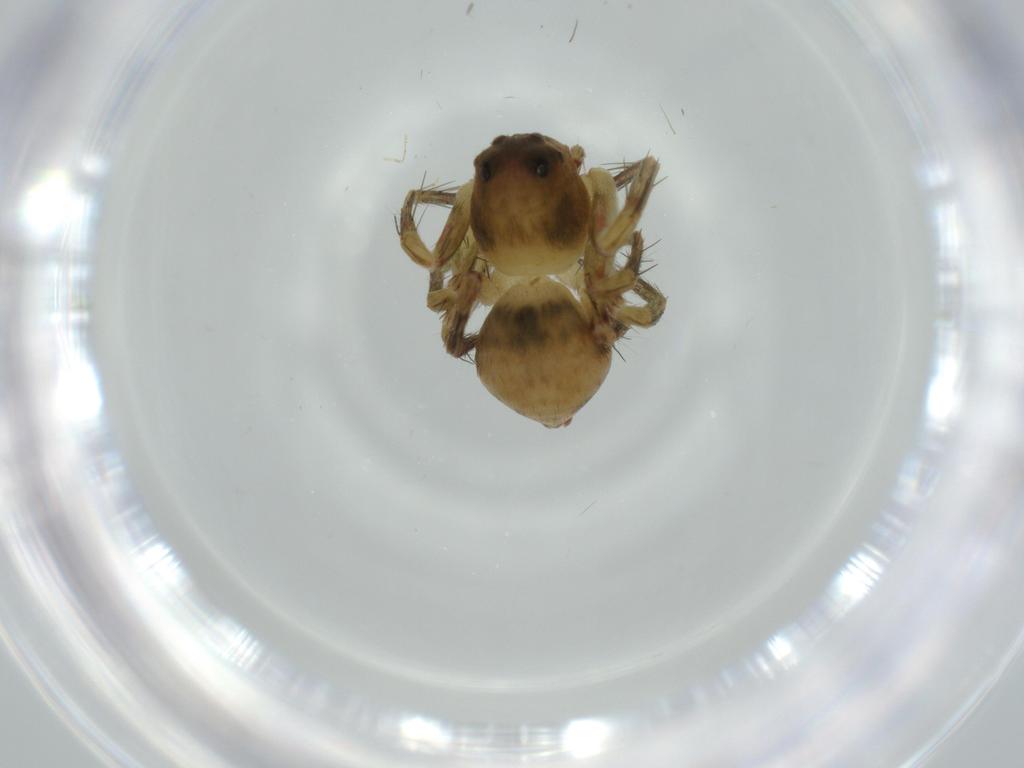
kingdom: Animalia
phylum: Arthropoda
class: Arachnida
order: Araneae
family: Oxyopidae
